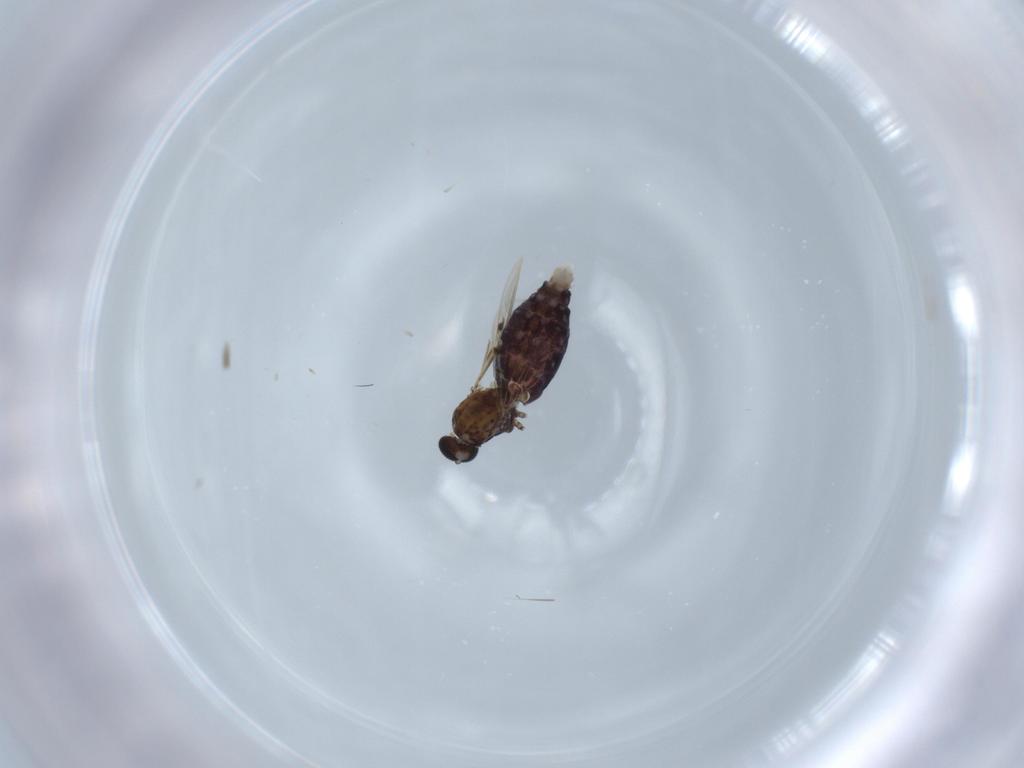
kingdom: Animalia
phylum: Arthropoda
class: Insecta
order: Diptera
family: Ceratopogonidae
